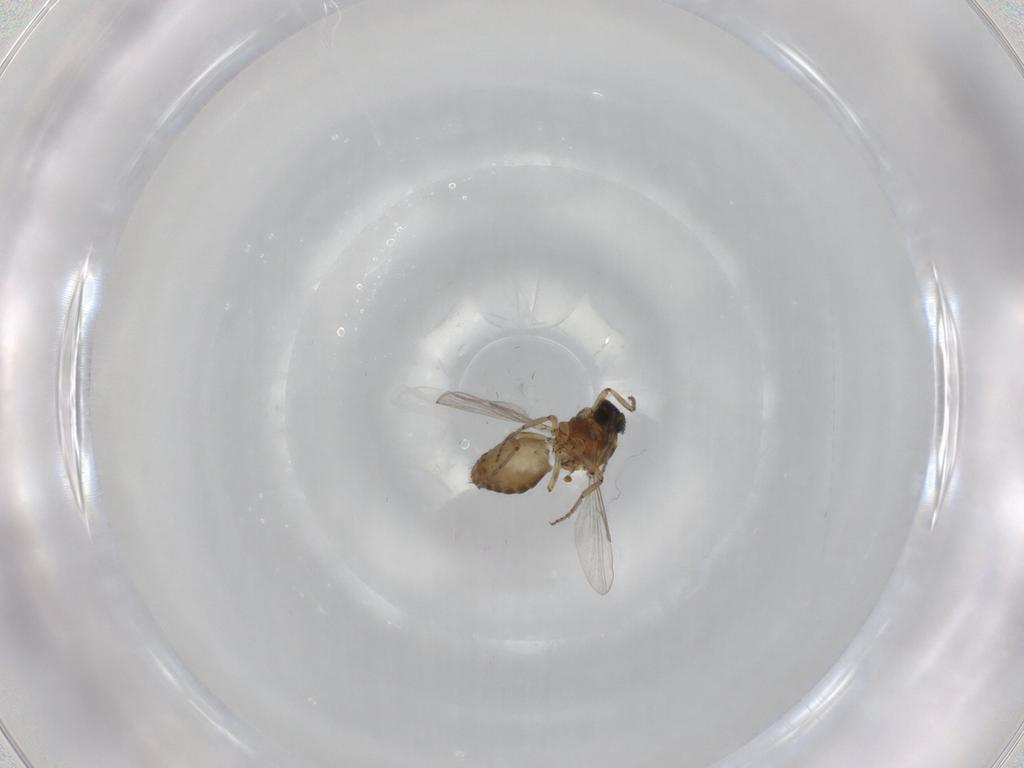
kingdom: Animalia
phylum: Arthropoda
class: Insecta
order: Diptera
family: Ceratopogonidae
